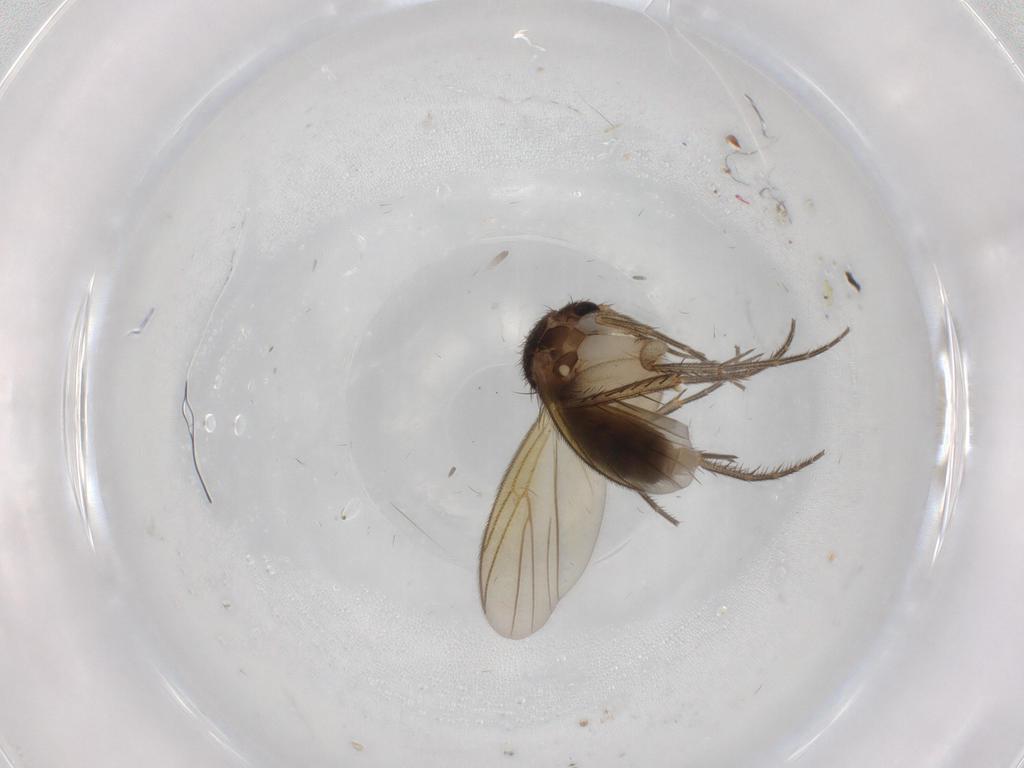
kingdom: Animalia
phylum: Arthropoda
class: Insecta
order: Diptera
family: Mycetophilidae
